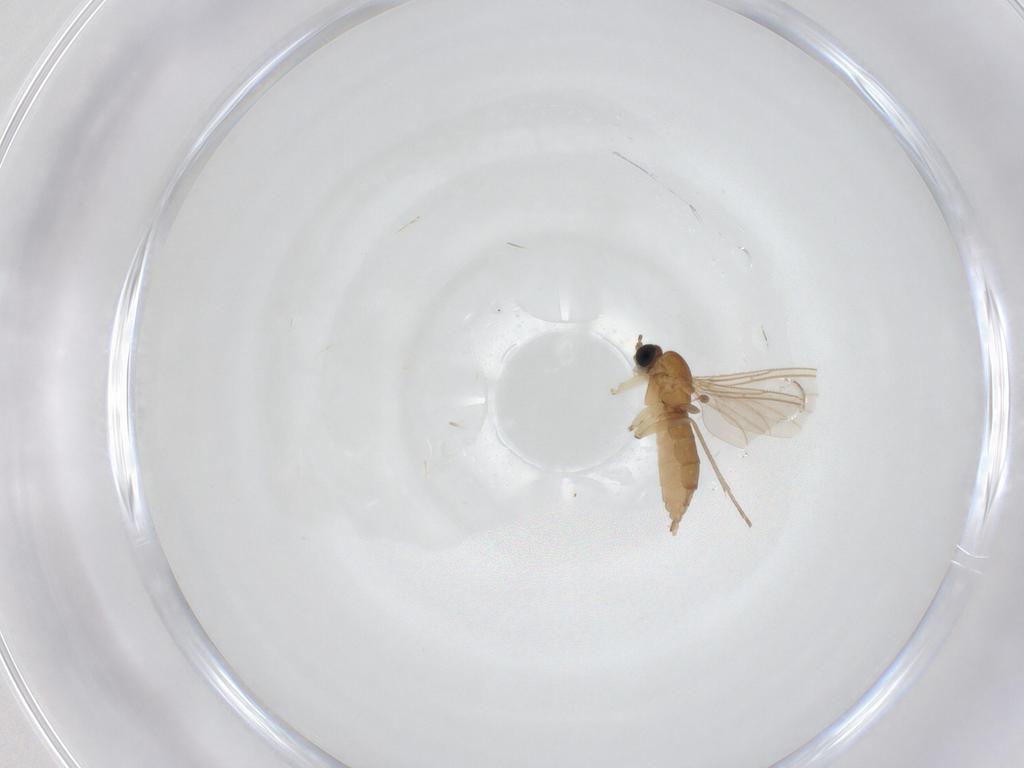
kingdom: Animalia
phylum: Arthropoda
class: Insecta
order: Diptera
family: Sciaridae
